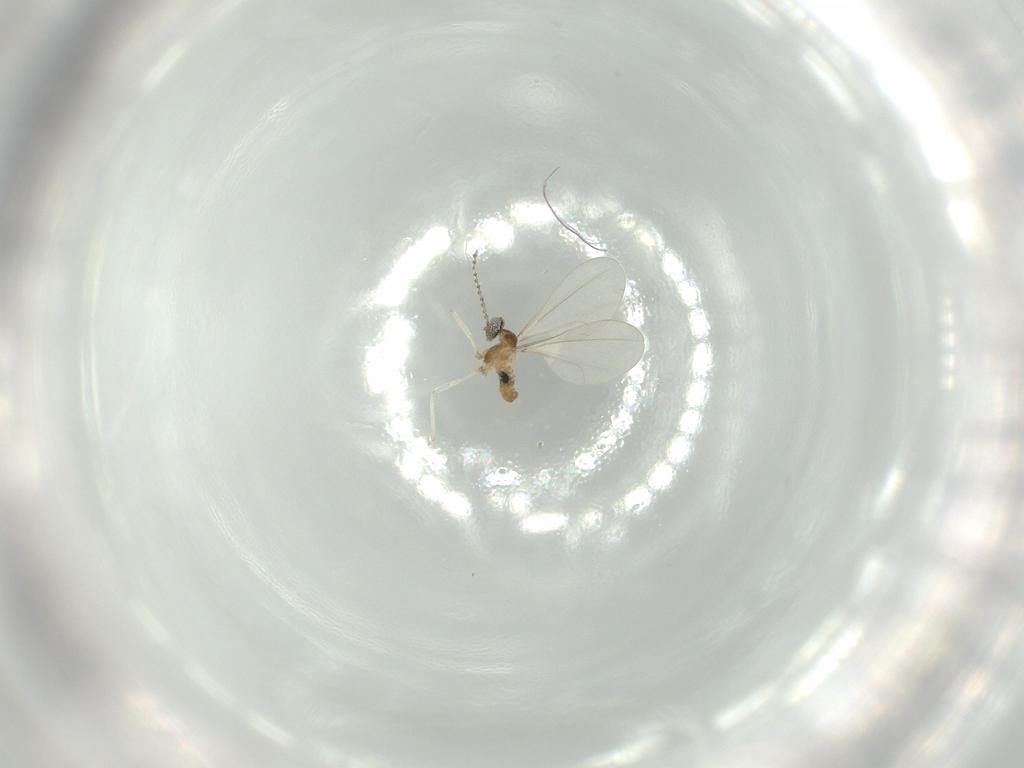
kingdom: Animalia
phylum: Arthropoda
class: Insecta
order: Diptera
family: Cecidomyiidae
